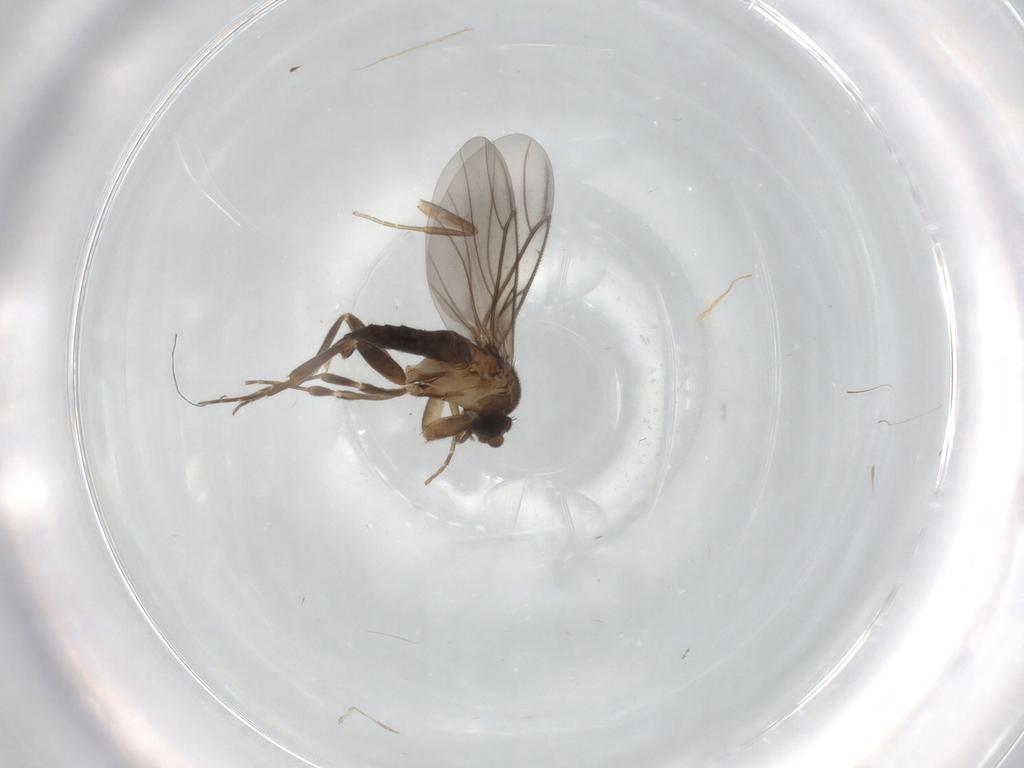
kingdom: Animalia
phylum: Arthropoda
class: Insecta
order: Diptera
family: Cecidomyiidae
